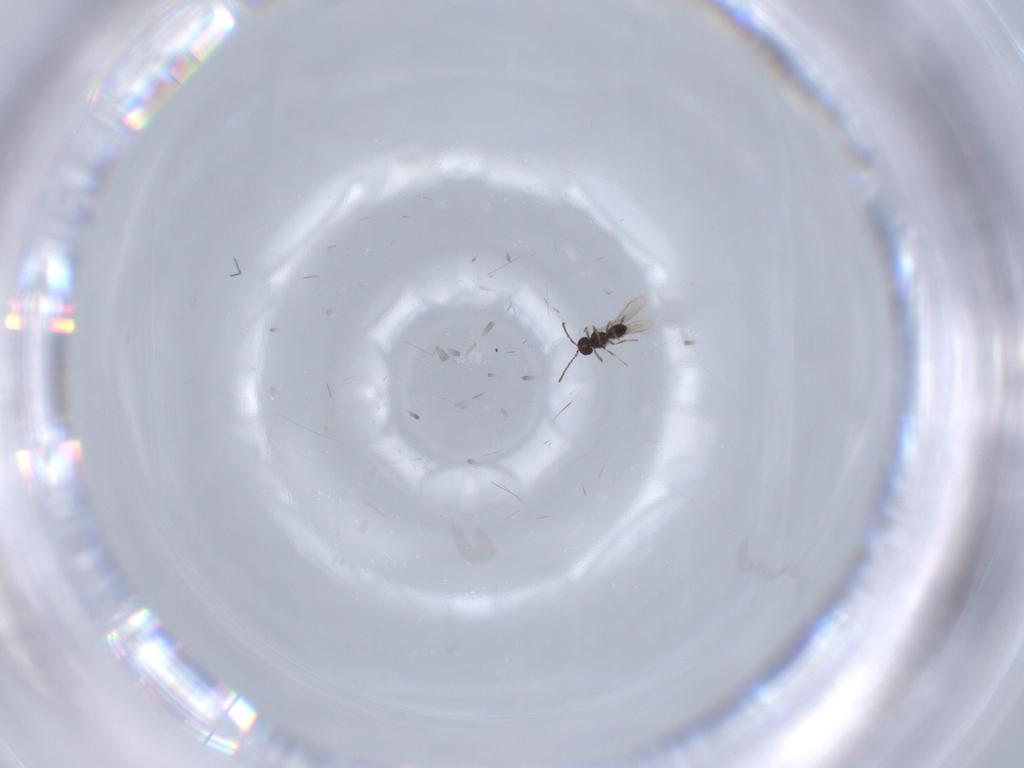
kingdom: Animalia
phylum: Arthropoda
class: Insecta
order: Hymenoptera
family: Scelionidae
